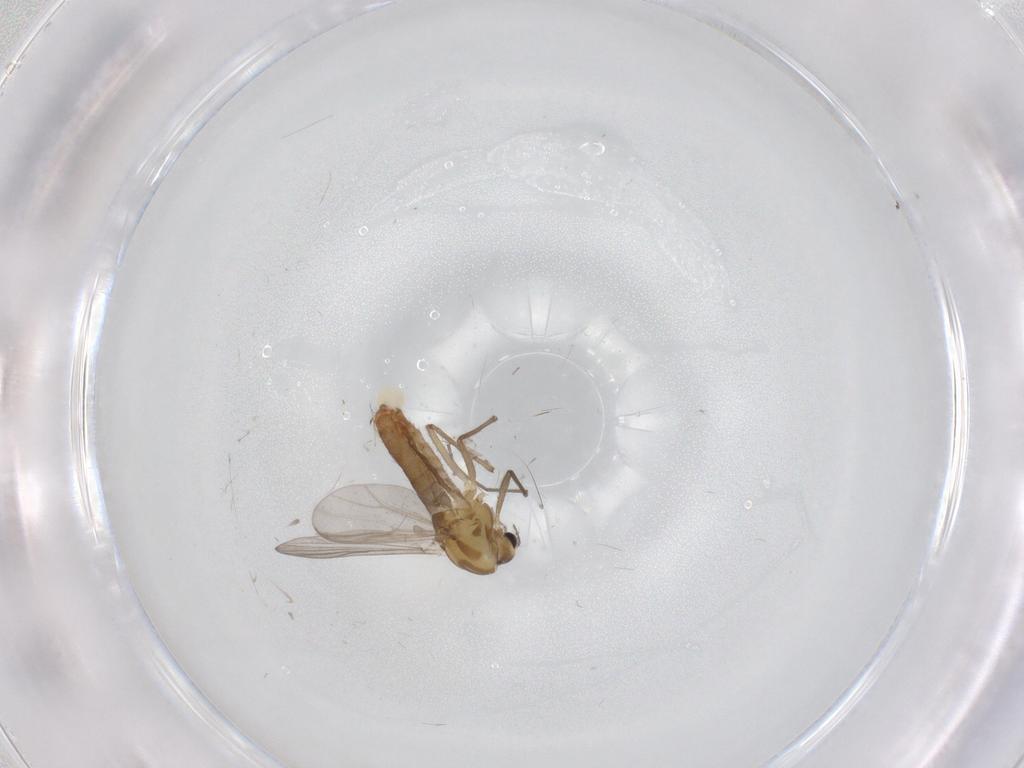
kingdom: Animalia
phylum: Arthropoda
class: Insecta
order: Diptera
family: Chironomidae
